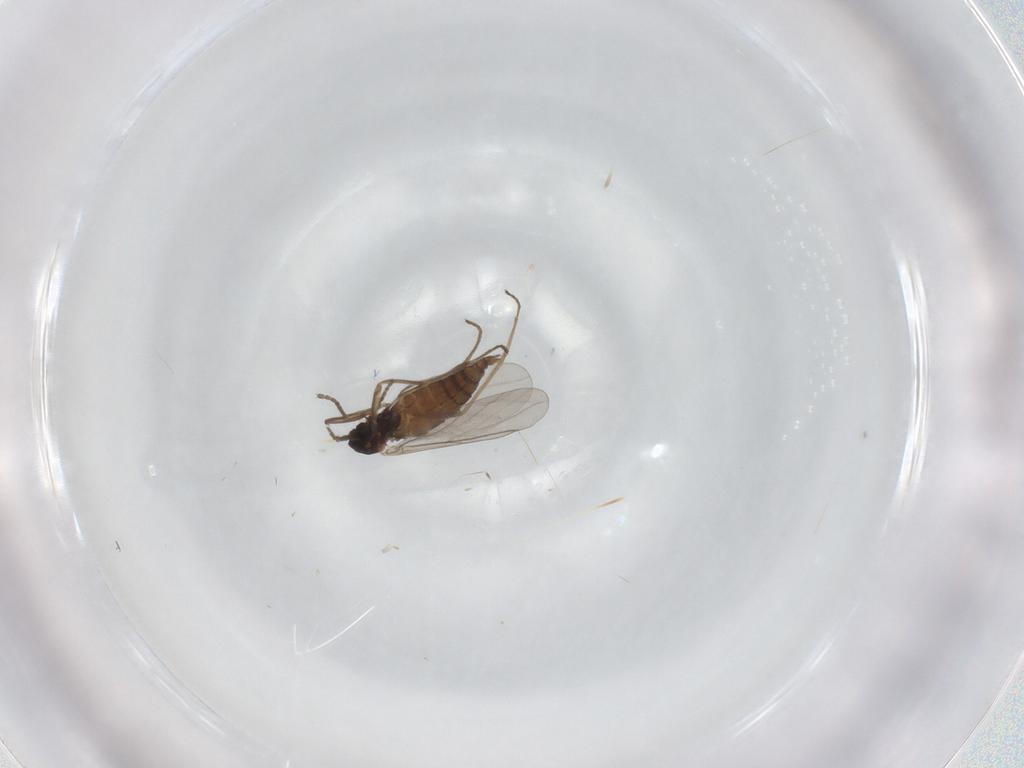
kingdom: Animalia
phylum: Arthropoda
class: Insecta
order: Diptera
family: Cecidomyiidae
